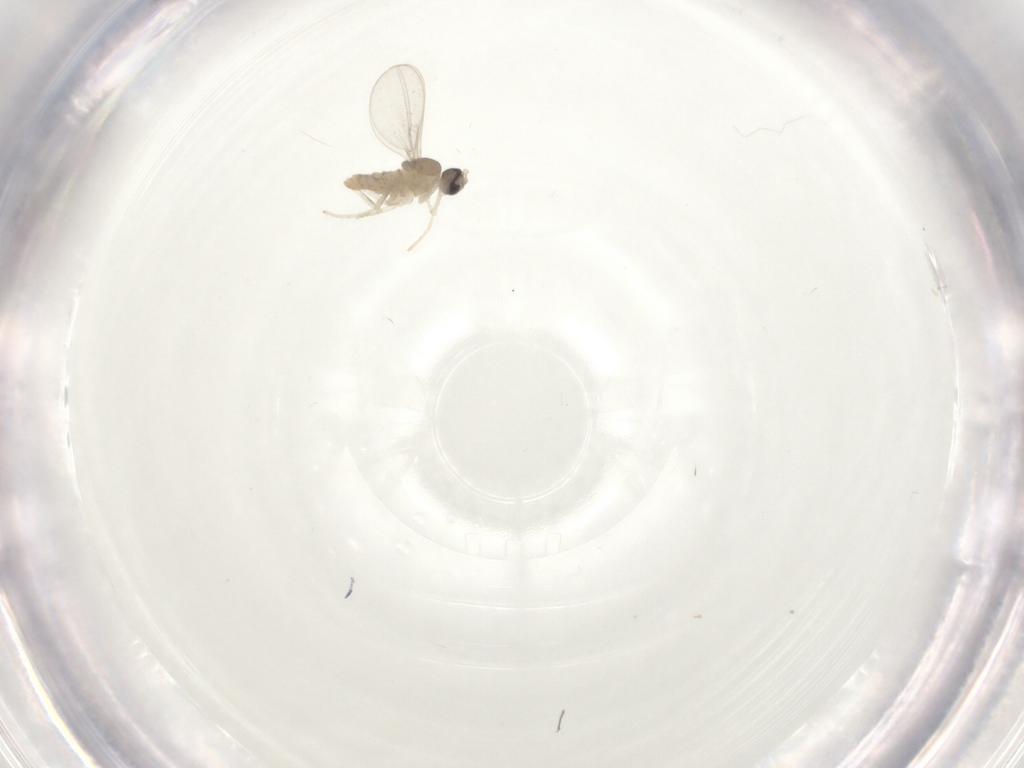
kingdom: Animalia
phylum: Arthropoda
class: Insecta
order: Diptera
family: Cecidomyiidae
